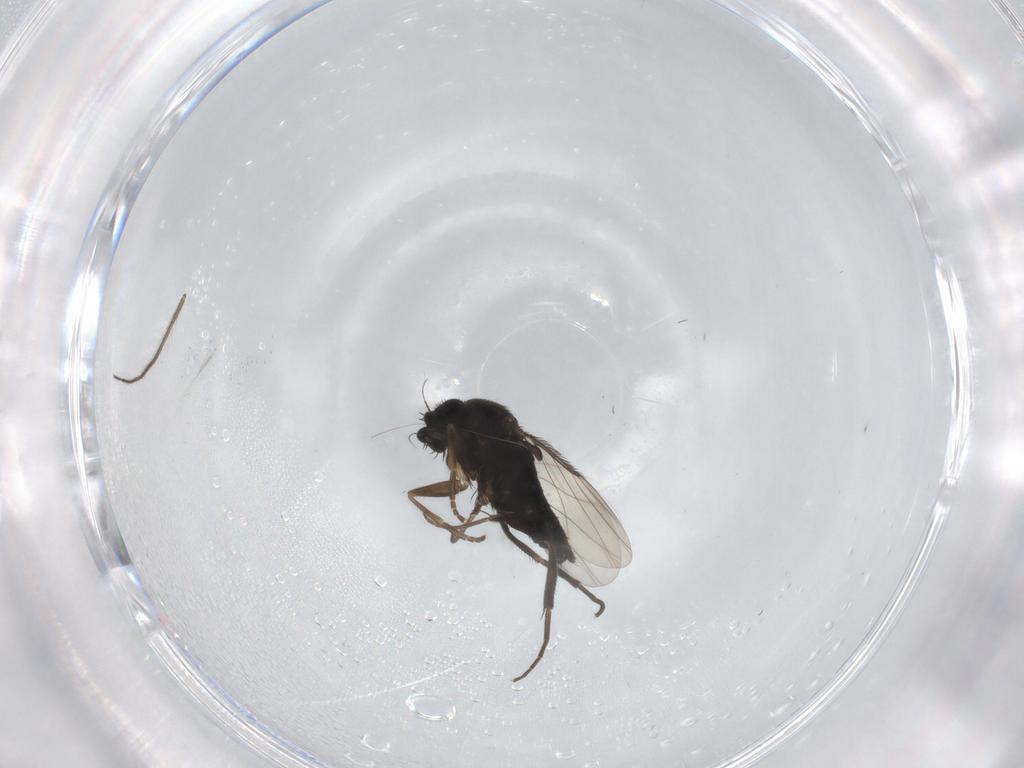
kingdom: Animalia
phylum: Arthropoda
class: Insecta
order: Diptera
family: Phoridae
